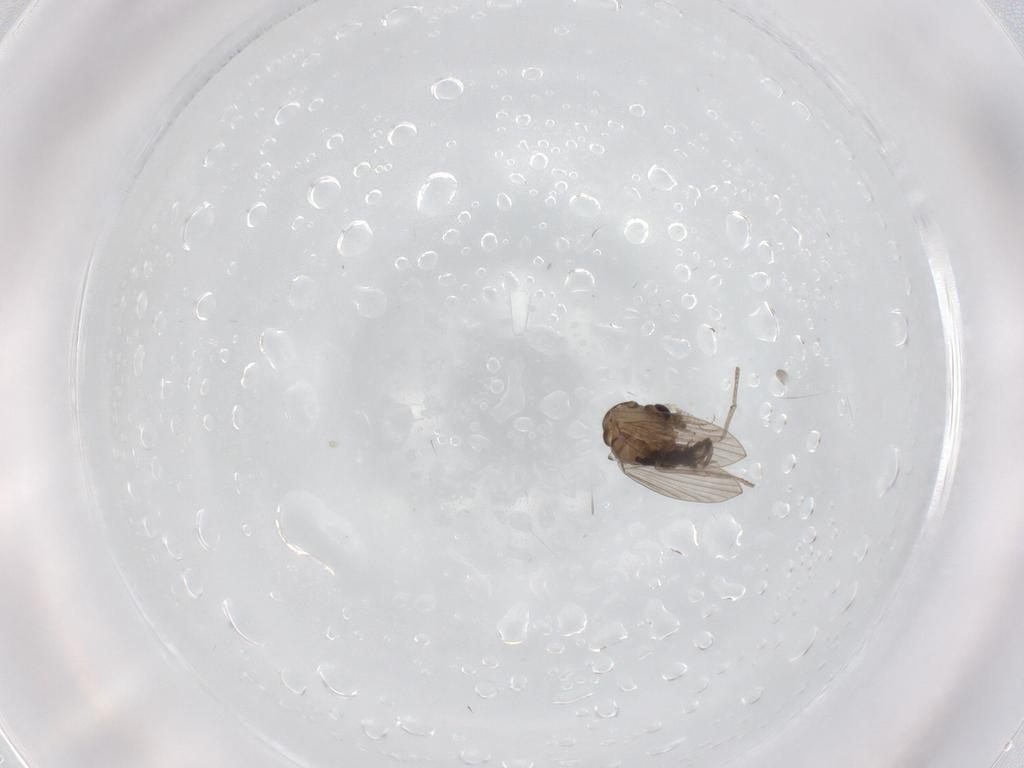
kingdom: Animalia
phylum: Arthropoda
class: Insecta
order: Diptera
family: Psychodidae
